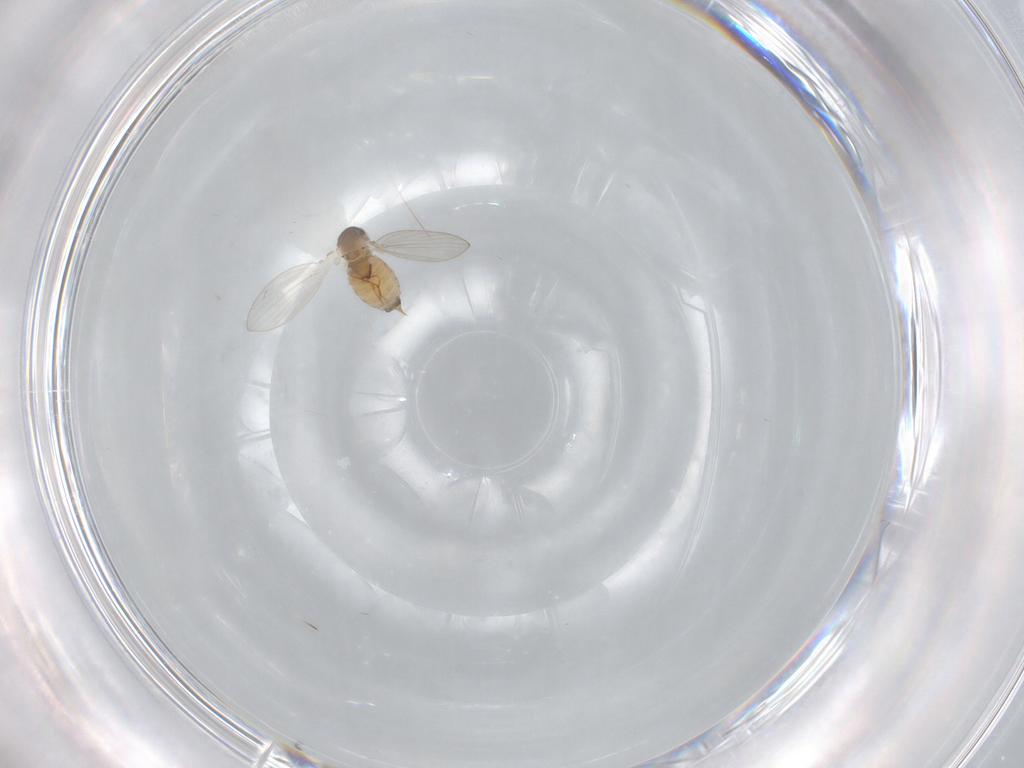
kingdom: Animalia
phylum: Arthropoda
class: Insecta
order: Diptera
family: Psychodidae
